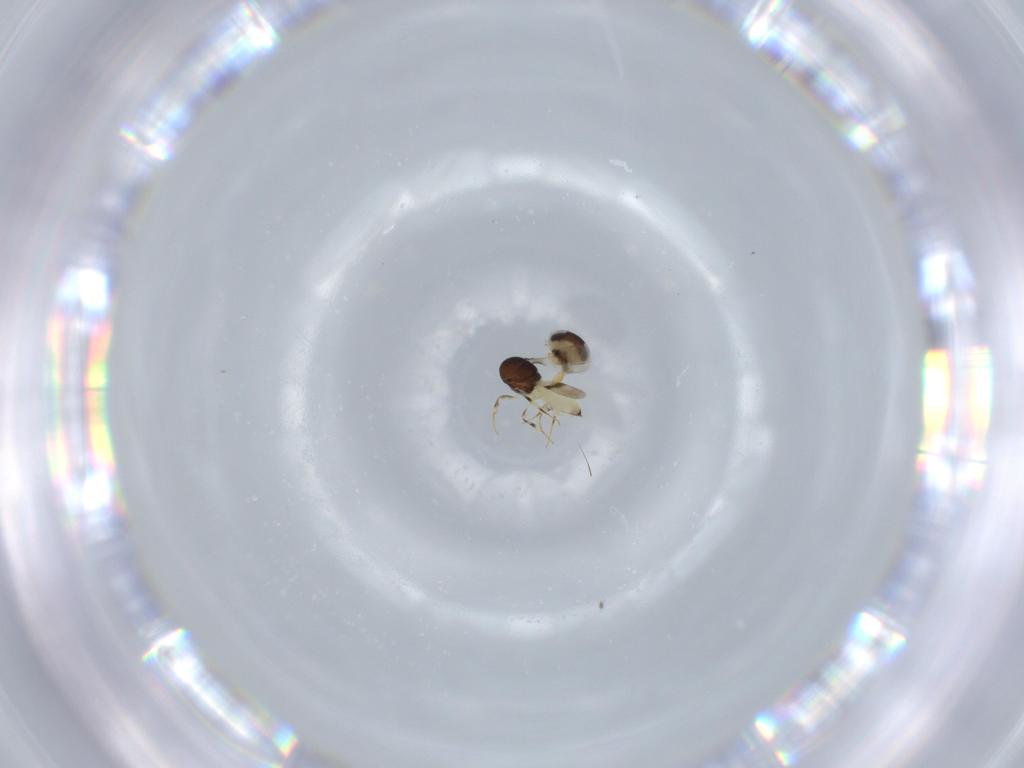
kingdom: Animalia
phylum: Arthropoda
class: Insecta
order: Hymenoptera
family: Scelionidae
